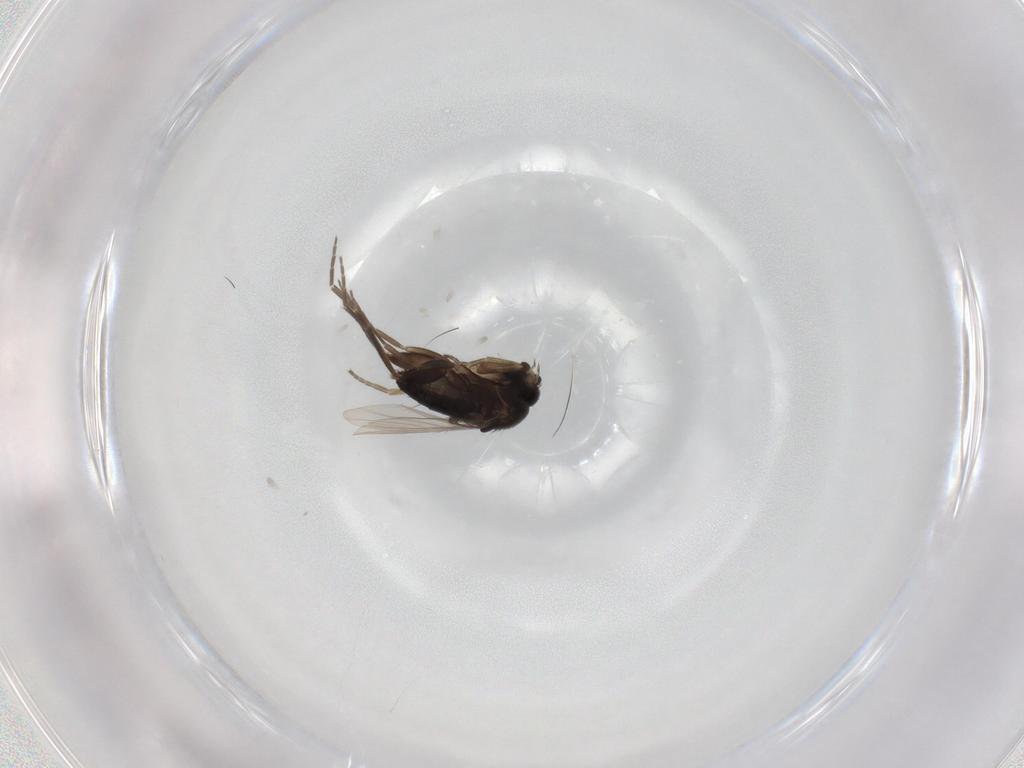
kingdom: Animalia
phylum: Arthropoda
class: Insecta
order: Diptera
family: Phoridae
